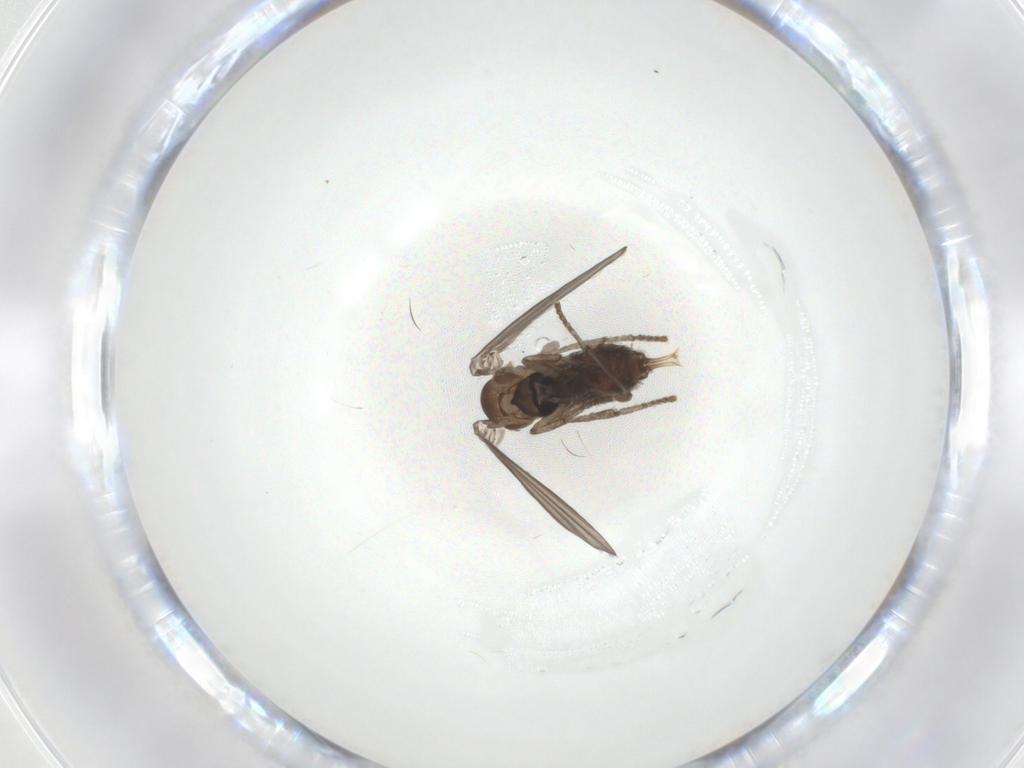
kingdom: Animalia
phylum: Arthropoda
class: Insecta
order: Diptera
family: Psychodidae
